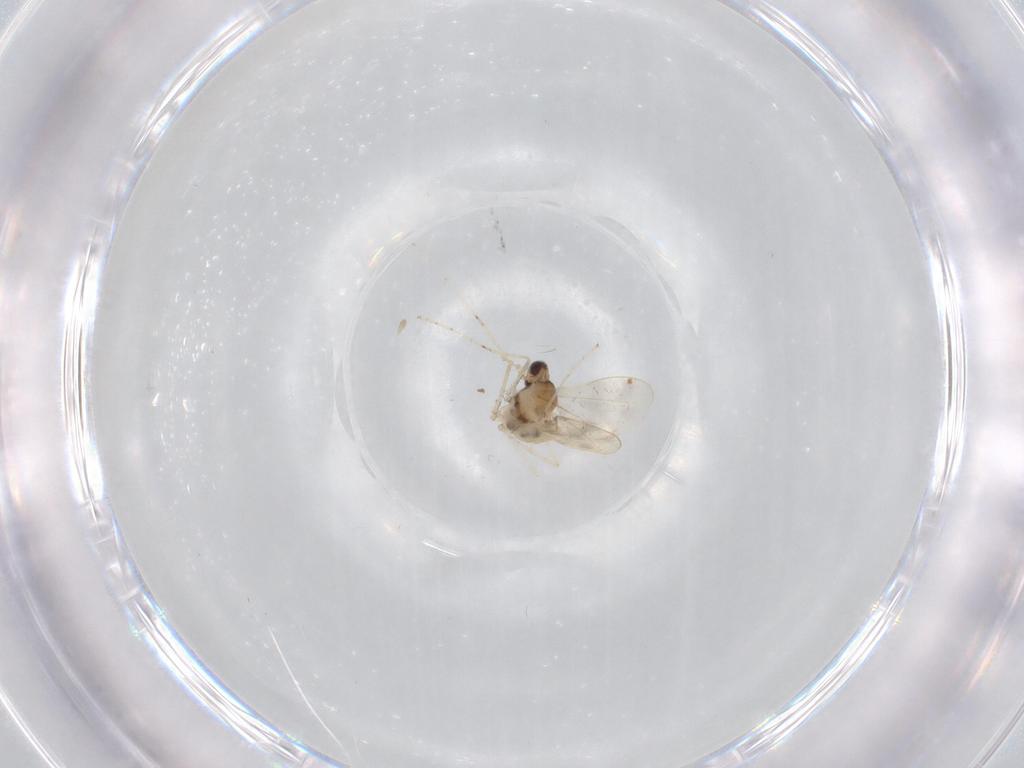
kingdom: Animalia
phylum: Arthropoda
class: Insecta
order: Diptera
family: Cecidomyiidae
